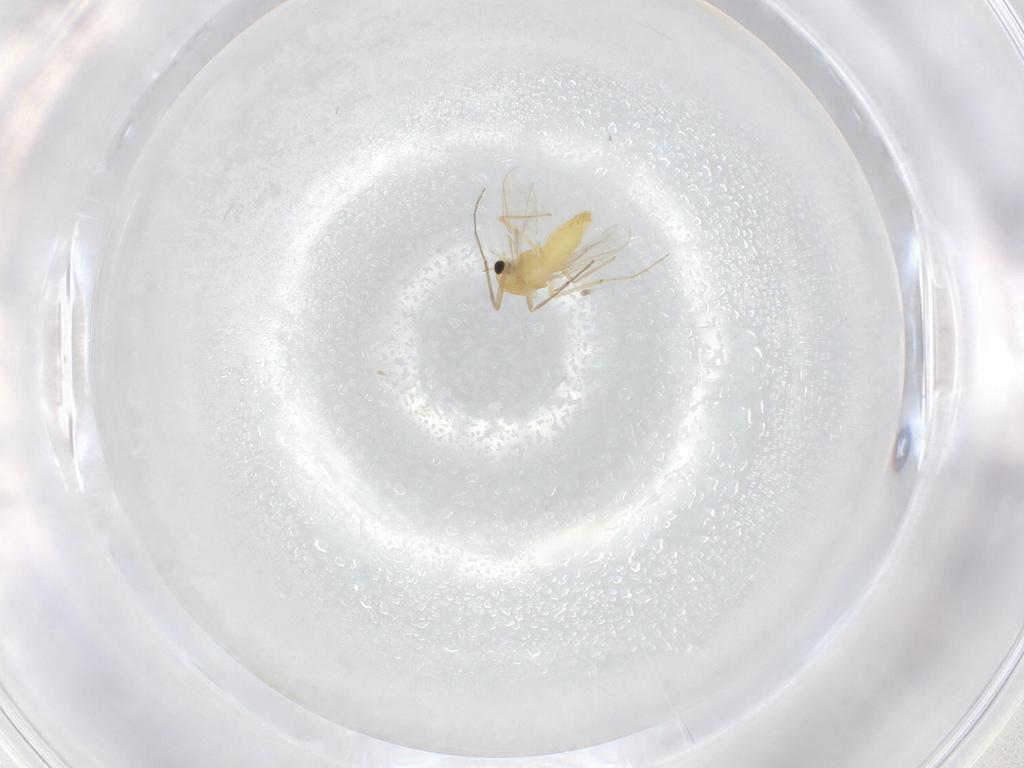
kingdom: Animalia
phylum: Arthropoda
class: Insecta
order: Diptera
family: Chironomidae
